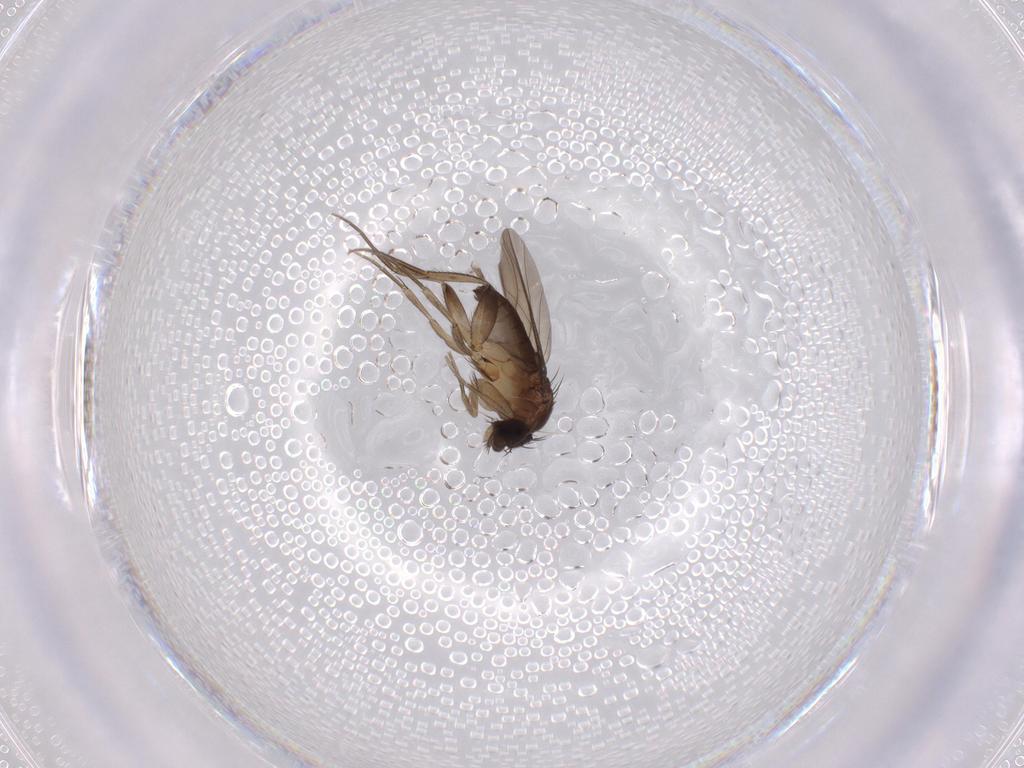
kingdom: Animalia
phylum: Arthropoda
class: Insecta
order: Diptera
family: Phoridae
